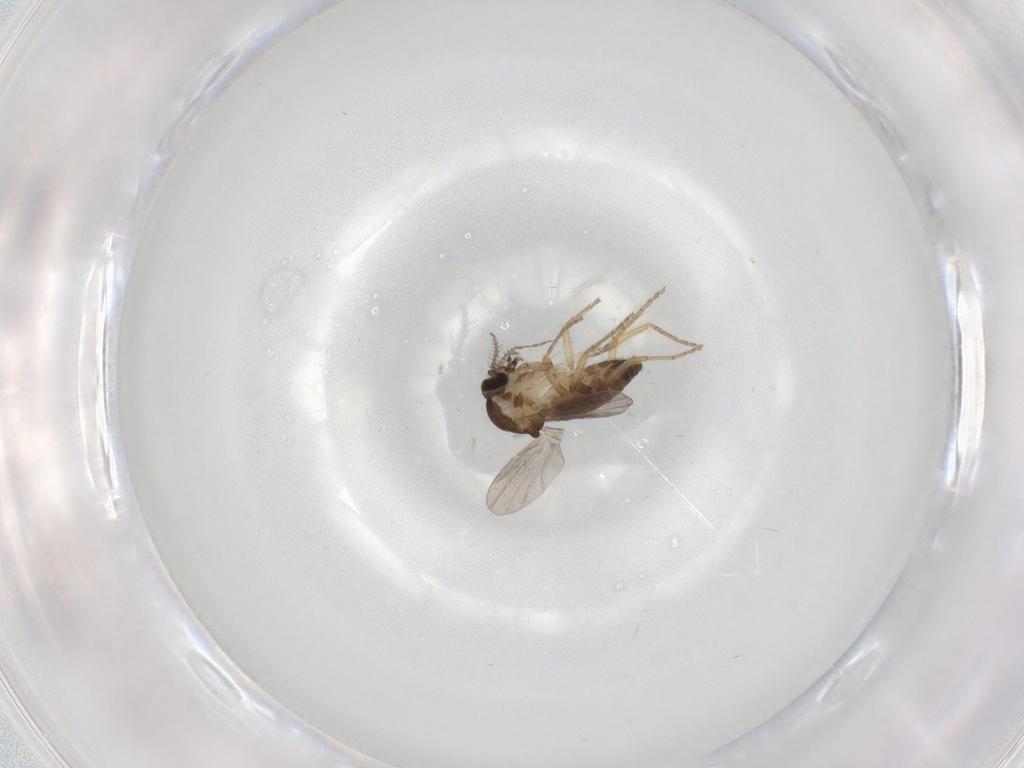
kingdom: Animalia
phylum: Arthropoda
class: Insecta
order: Diptera
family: Ceratopogonidae
